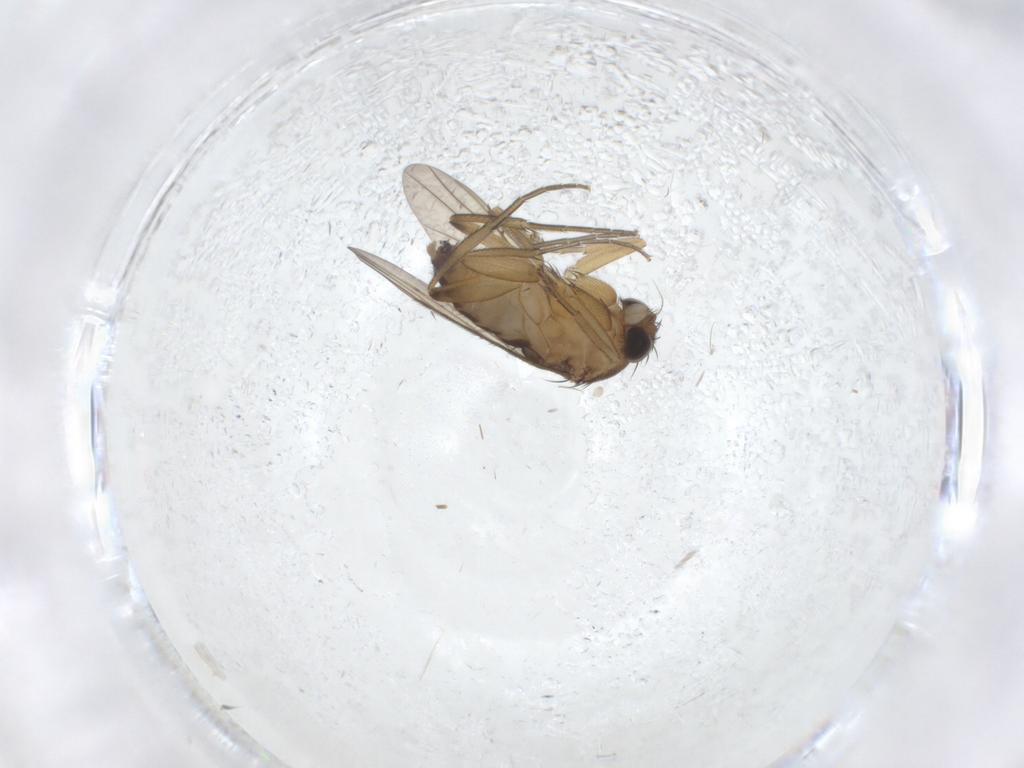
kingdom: Animalia
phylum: Arthropoda
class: Insecta
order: Diptera
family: Phoridae
